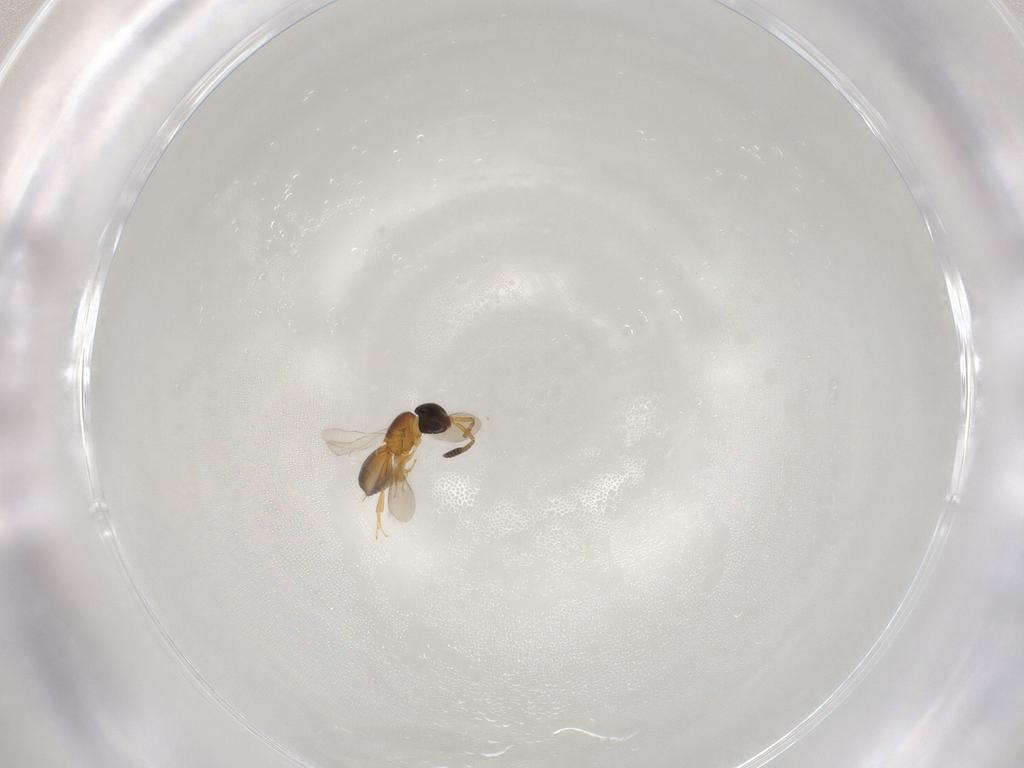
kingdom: Animalia
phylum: Arthropoda
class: Insecta
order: Hymenoptera
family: Scelionidae
